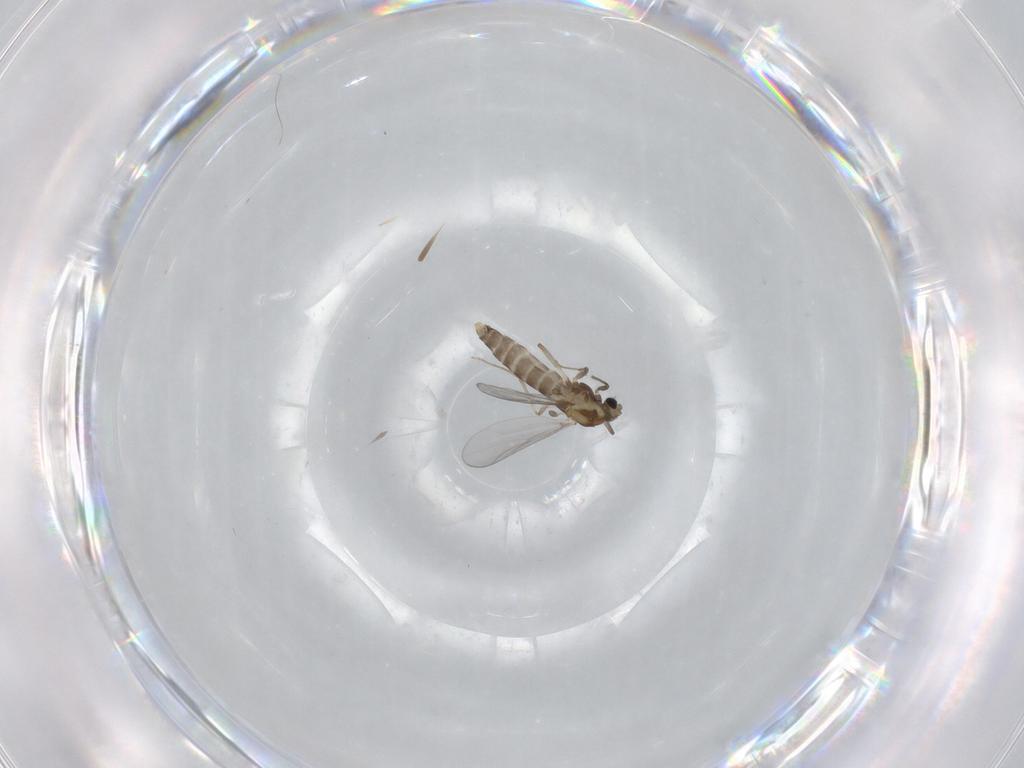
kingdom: Animalia
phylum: Arthropoda
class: Insecta
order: Diptera
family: Chironomidae
